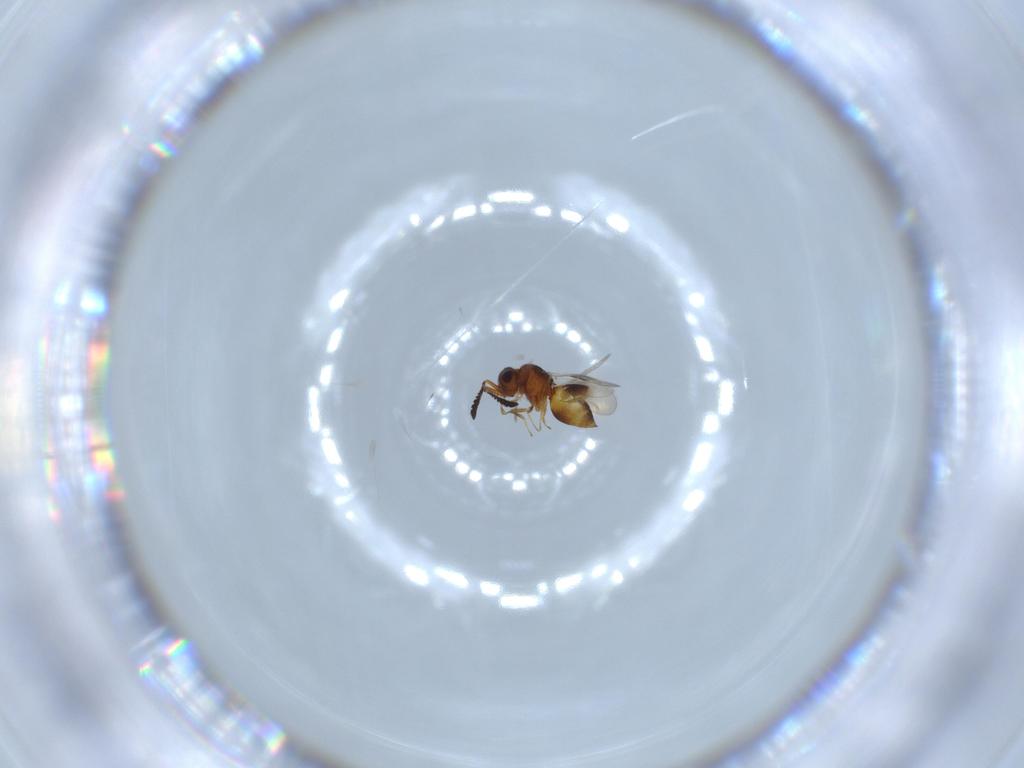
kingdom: Animalia
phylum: Arthropoda
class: Insecta
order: Hymenoptera
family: Ceraphronidae
